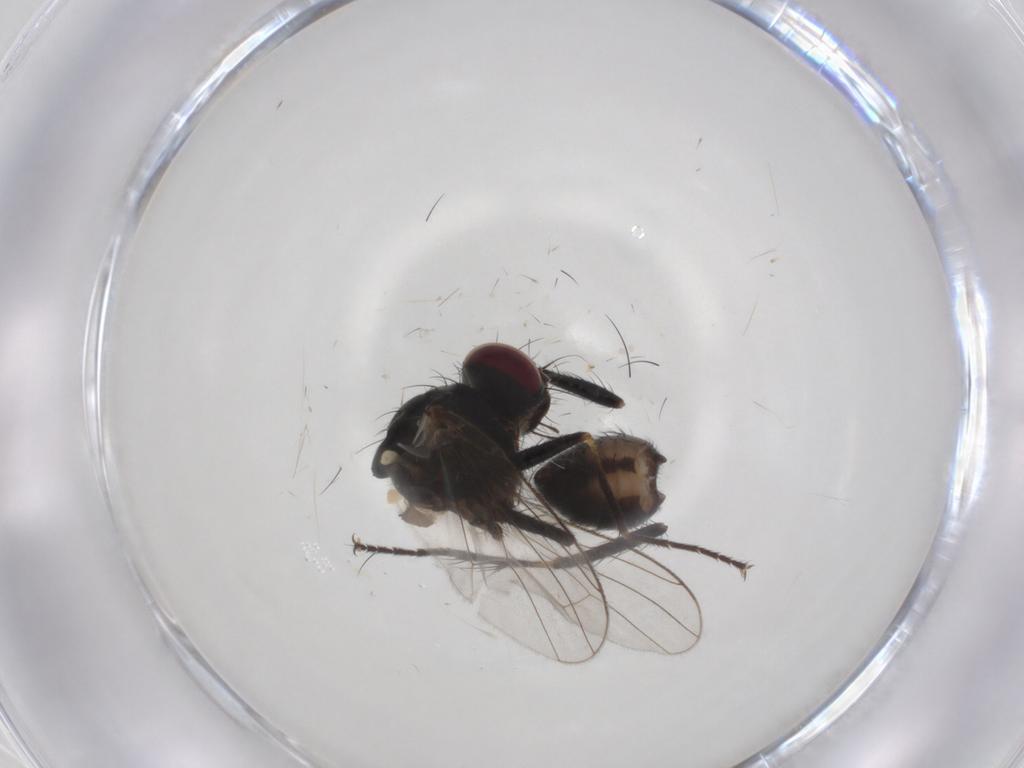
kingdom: Animalia
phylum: Arthropoda
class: Insecta
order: Diptera
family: Muscidae
